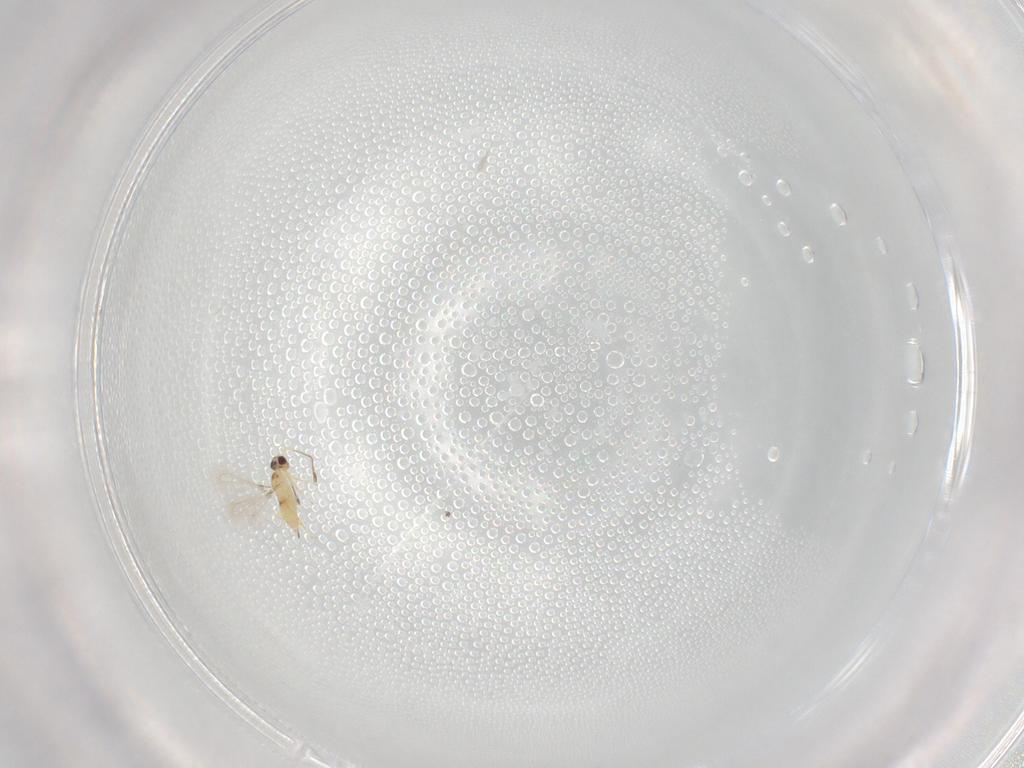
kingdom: Animalia
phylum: Arthropoda
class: Insecta
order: Hymenoptera
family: Mymaridae
